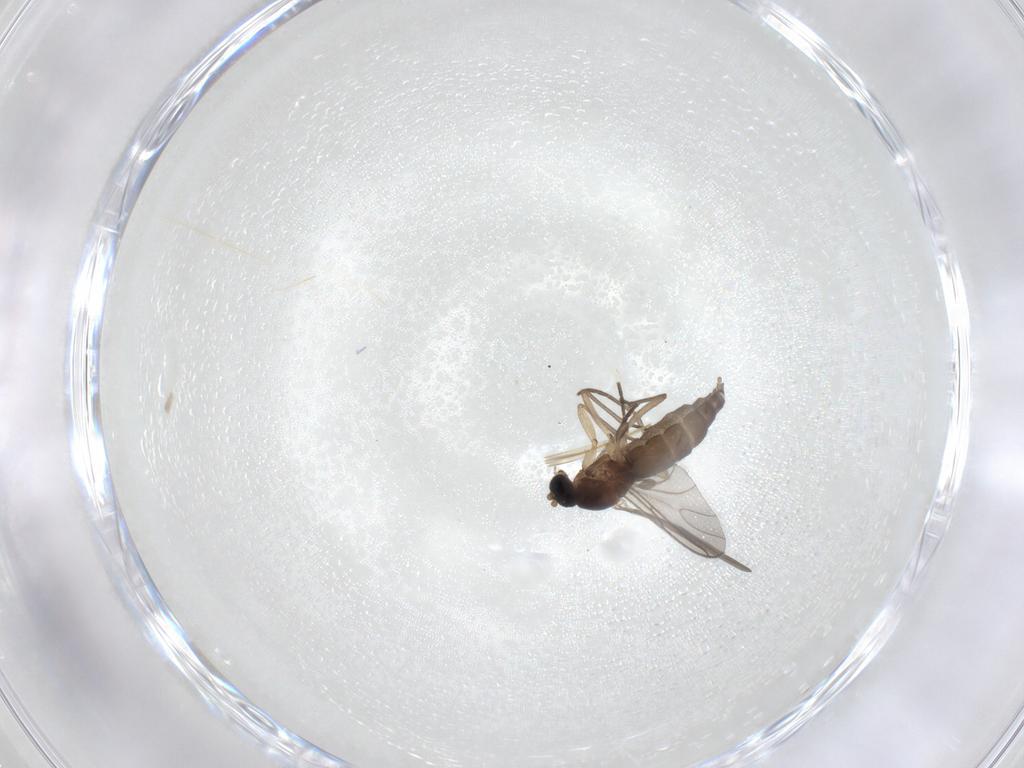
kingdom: Animalia
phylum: Arthropoda
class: Insecta
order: Diptera
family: Sciaridae
